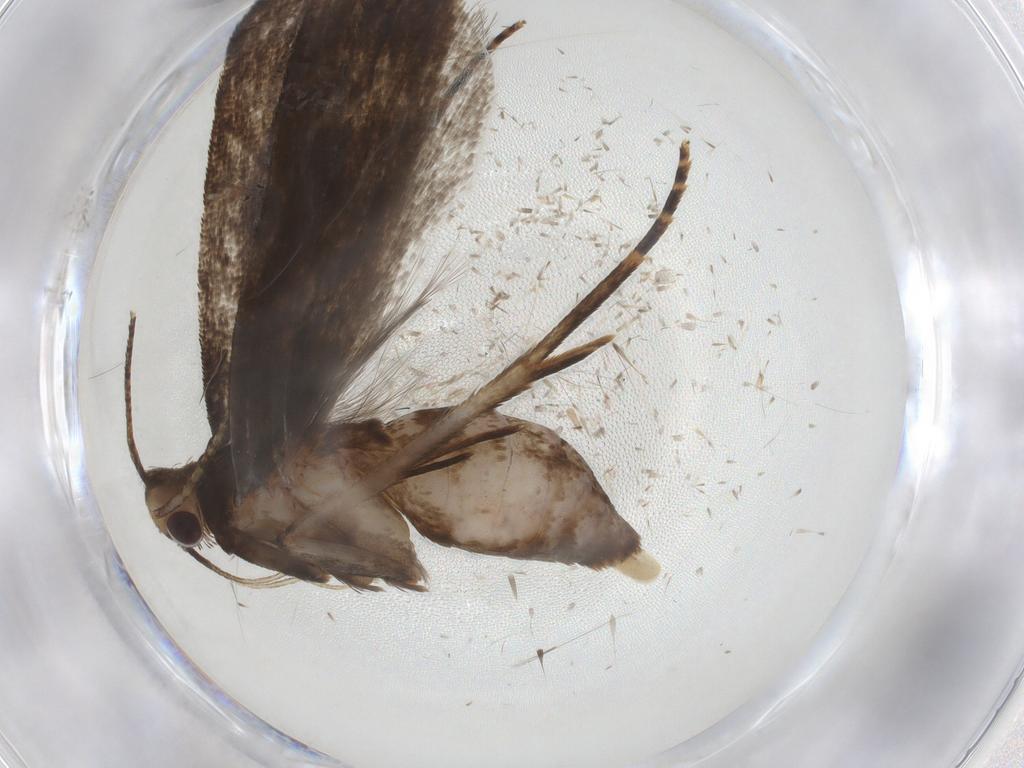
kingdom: Animalia
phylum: Arthropoda
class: Insecta
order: Lepidoptera
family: Gelechiidae
